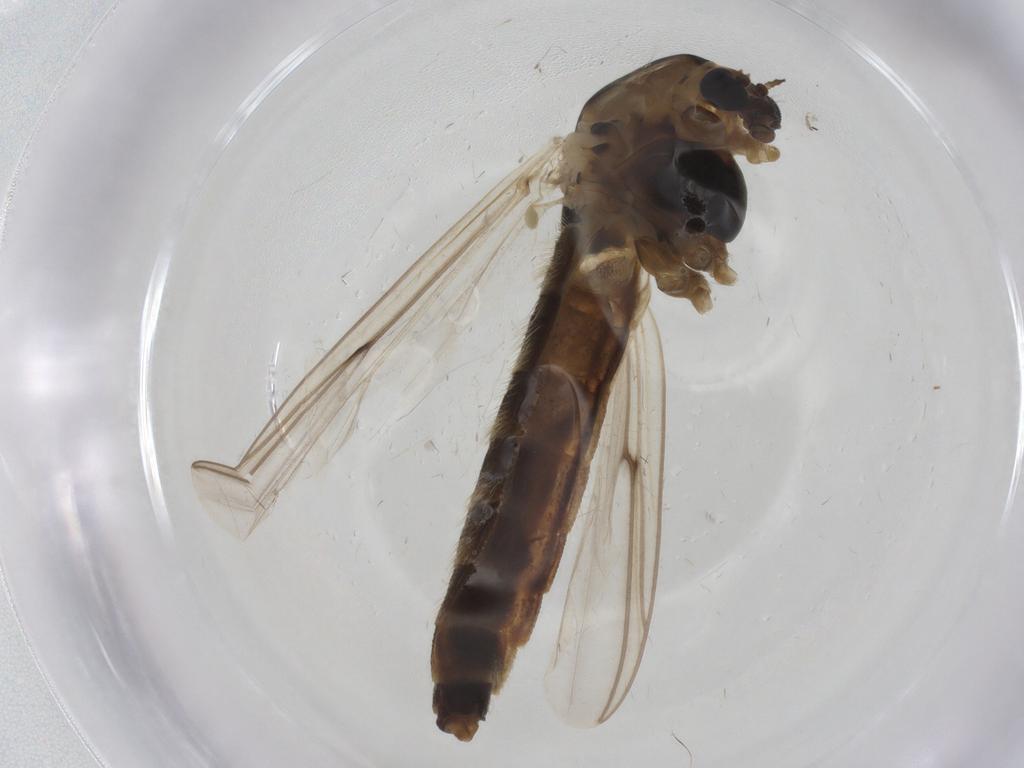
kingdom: Animalia
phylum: Arthropoda
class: Insecta
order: Diptera
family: Chironomidae
